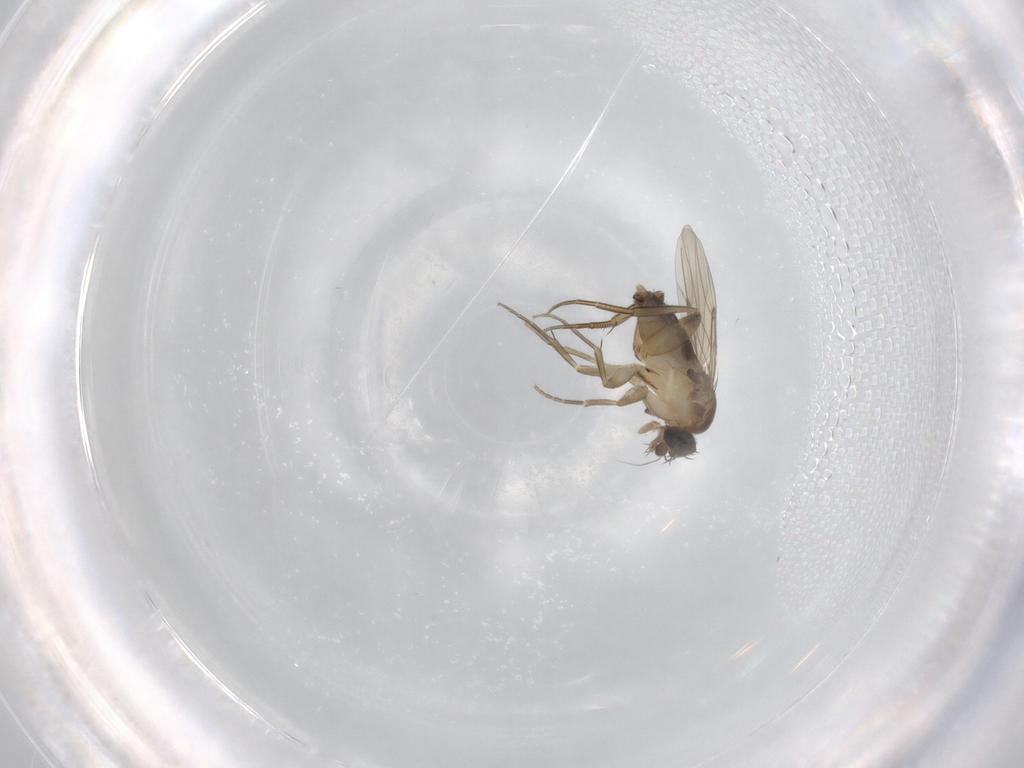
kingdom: Animalia
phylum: Arthropoda
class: Insecta
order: Diptera
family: Phoridae
